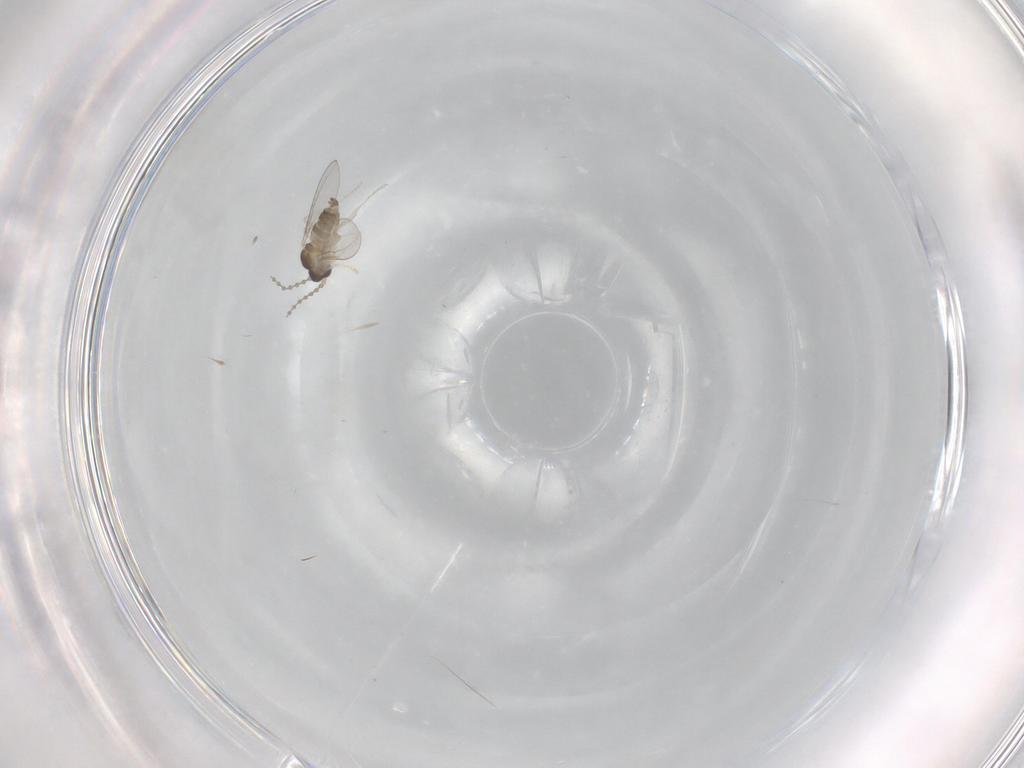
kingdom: Animalia
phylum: Arthropoda
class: Insecta
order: Diptera
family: Cecidomyiidae
